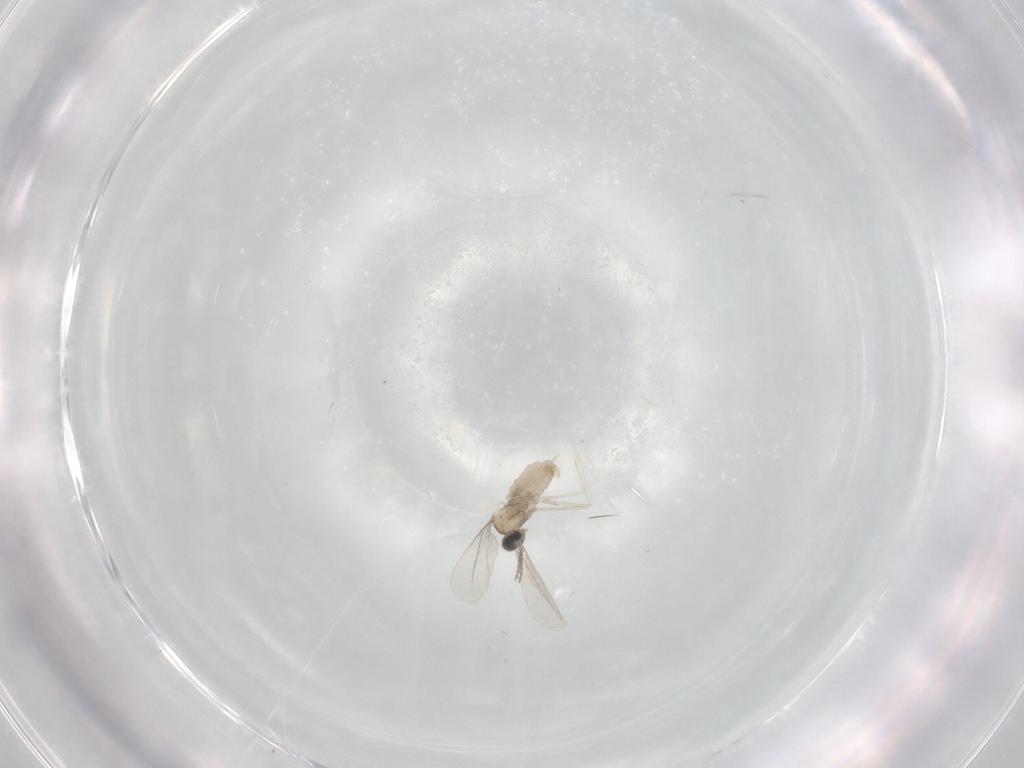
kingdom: Animalia
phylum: Arthropoda
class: Insecta
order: Diptera
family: Cecidomyiidae
